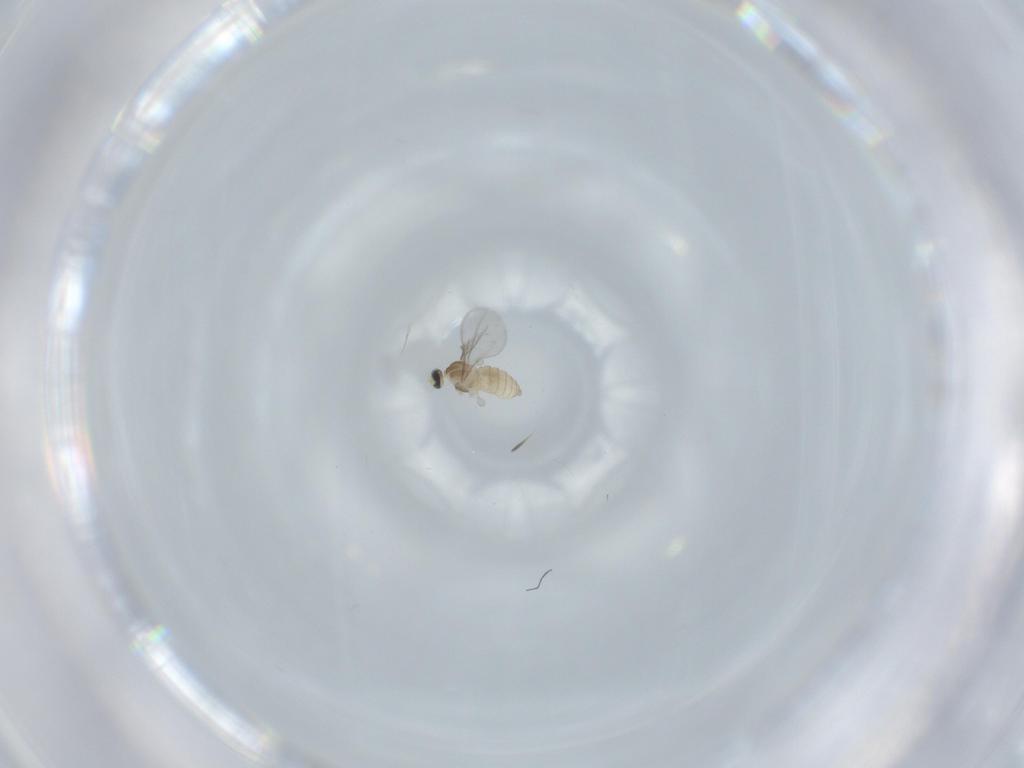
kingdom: Animalia
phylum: Arthropoda
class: Insecta
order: Diptera
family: Cecidomyiidae
